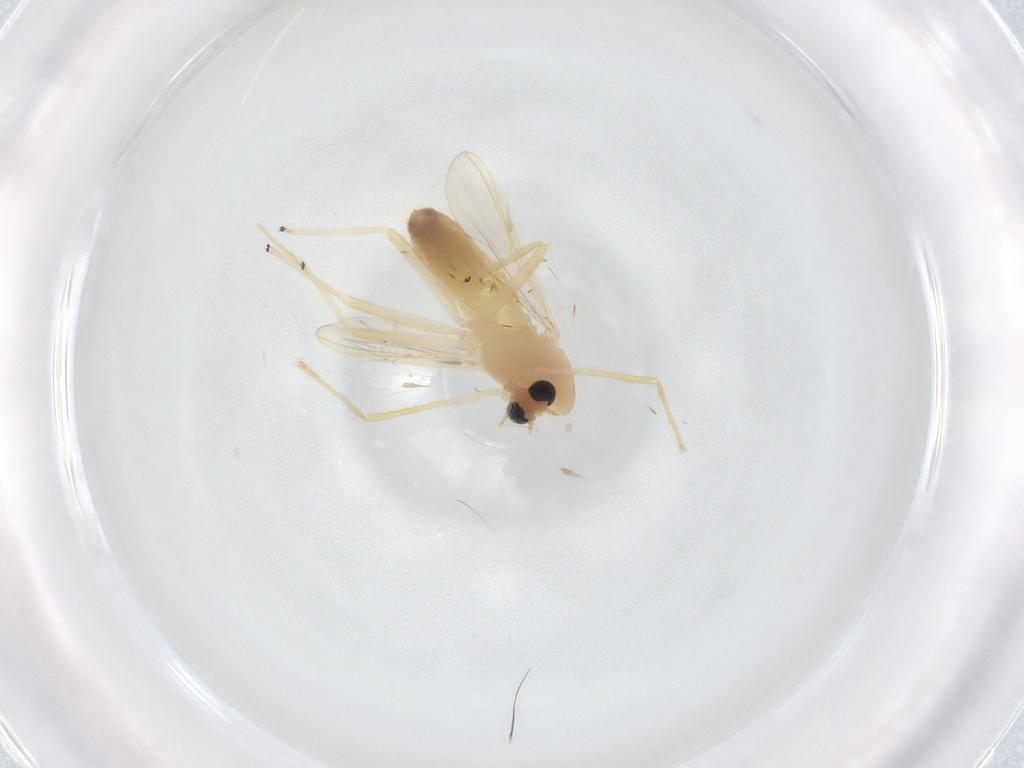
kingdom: Animalia
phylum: Arthropoda
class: Insecta
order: Diptera
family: Chironomidae
